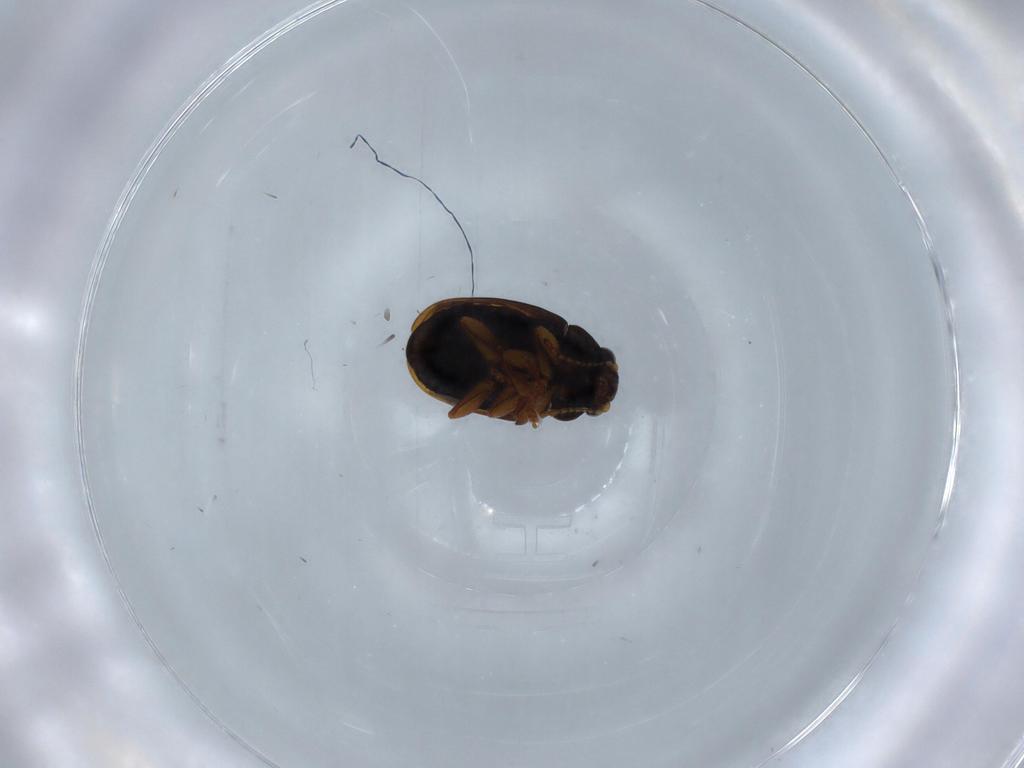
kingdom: Animalia
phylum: Arthropoda
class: Insecta
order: Coleoptera
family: Chrysomelidae
